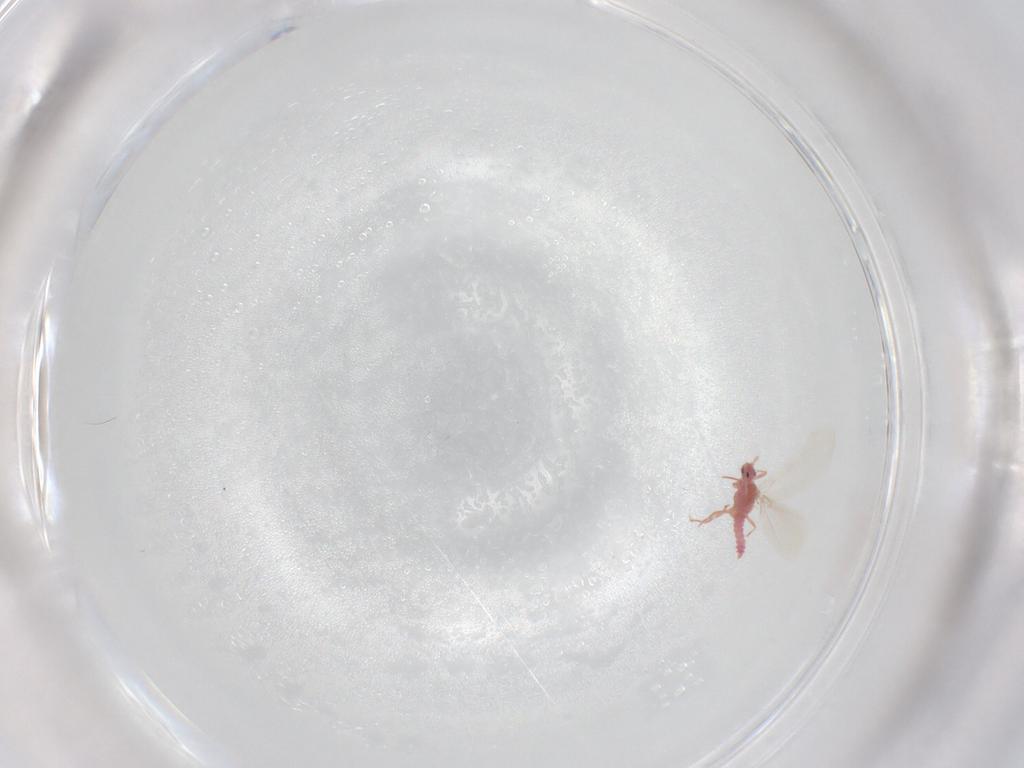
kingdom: Animalia
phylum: Arthropoda
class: Insecta
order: Hemiptera
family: Pseudococcidae
